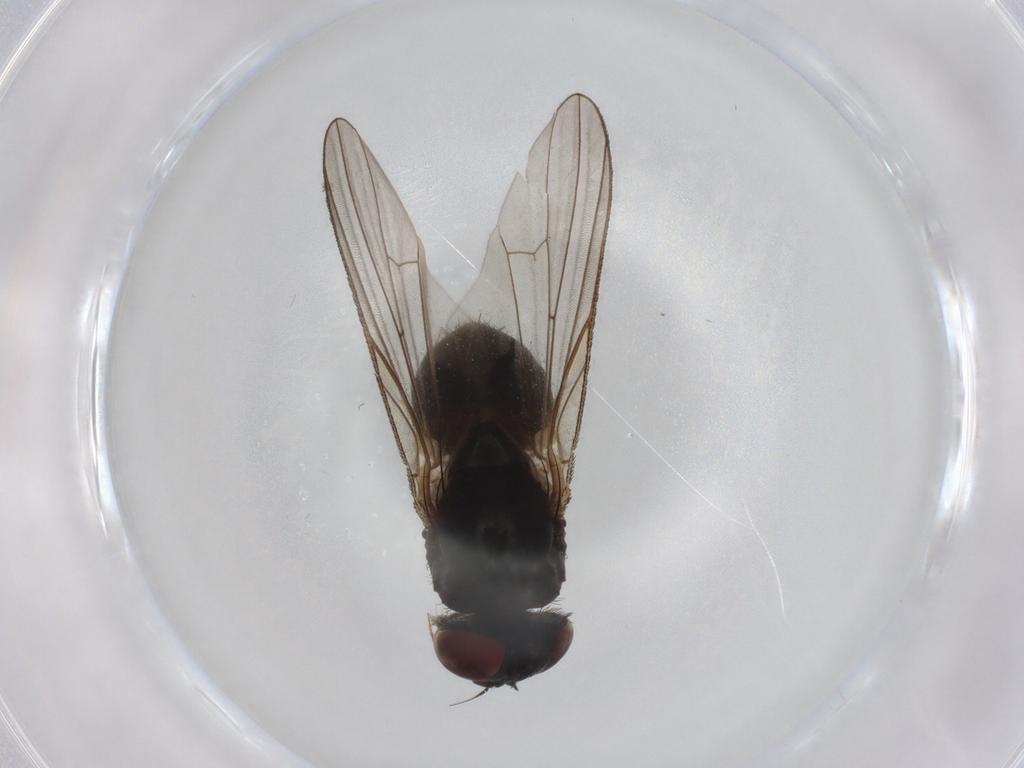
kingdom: Animalia
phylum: Arthropoda
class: Insecta
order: Diptera
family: Fannia
